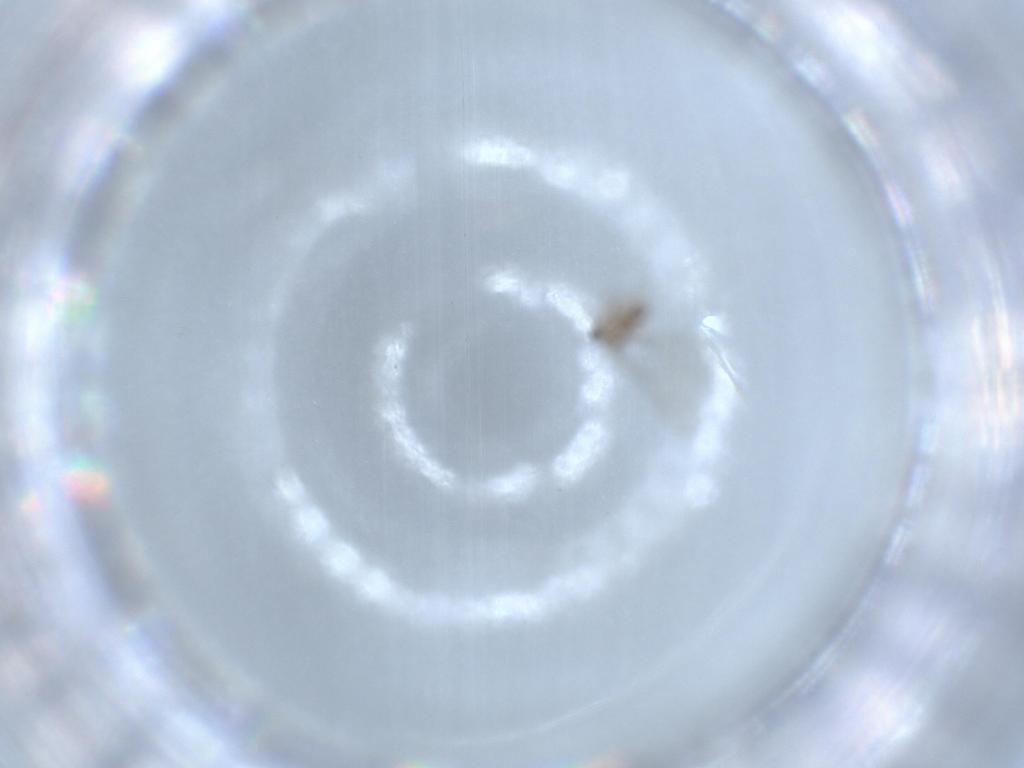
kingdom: Animalia
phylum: Arthropoda
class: Insecta
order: Diptera
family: Cecidomyiidae
